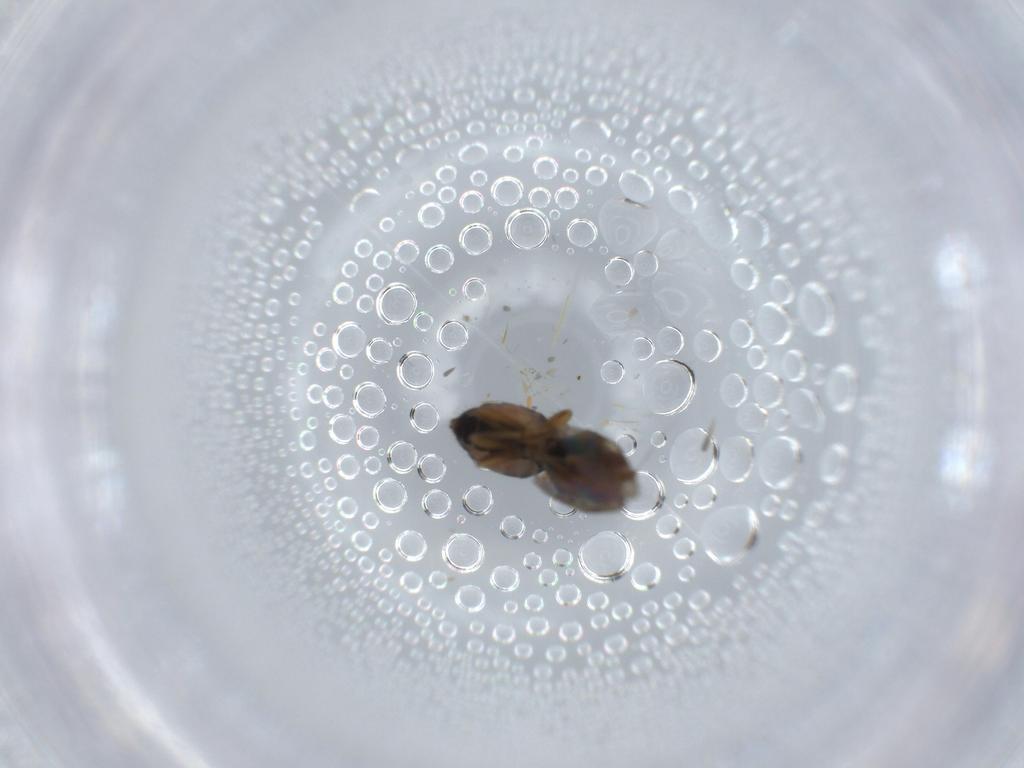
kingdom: Animalia
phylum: Arthropoda
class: Insecta
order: Diptera
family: Sphaeroceridae
